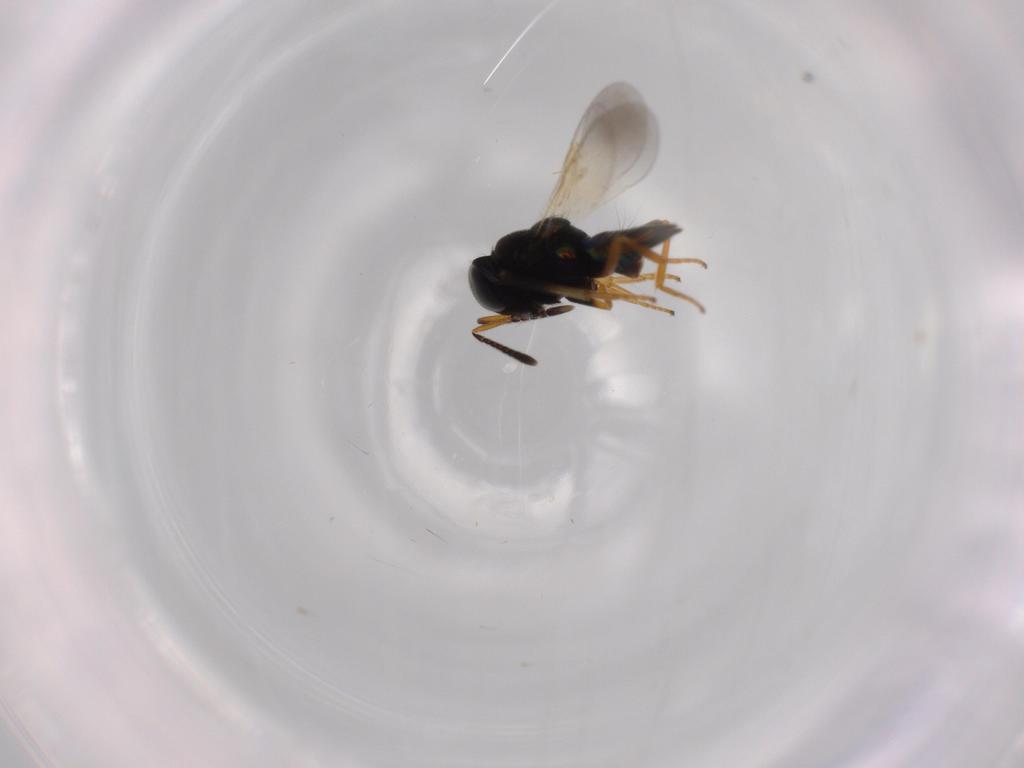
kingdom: Animalia
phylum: Arthropoda
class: Insecta
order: Hymenoptera
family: Encyrtidae
